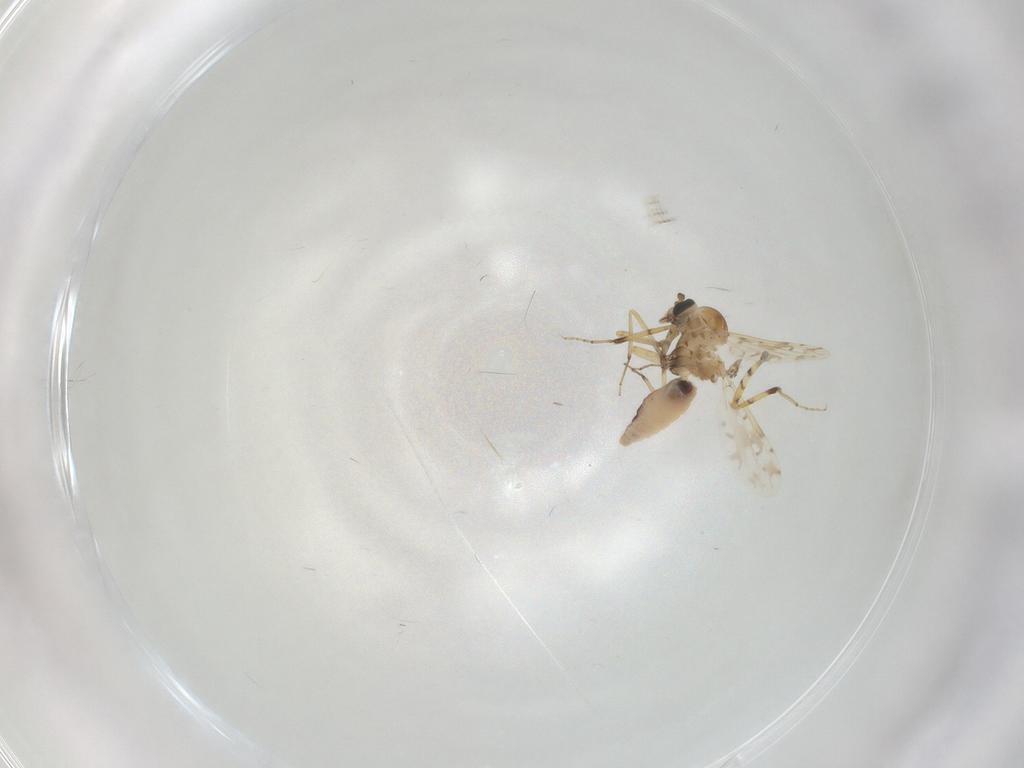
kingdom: Animalia
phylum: Arthropoda
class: Insecta
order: Diptera
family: Ceratopogonidae
